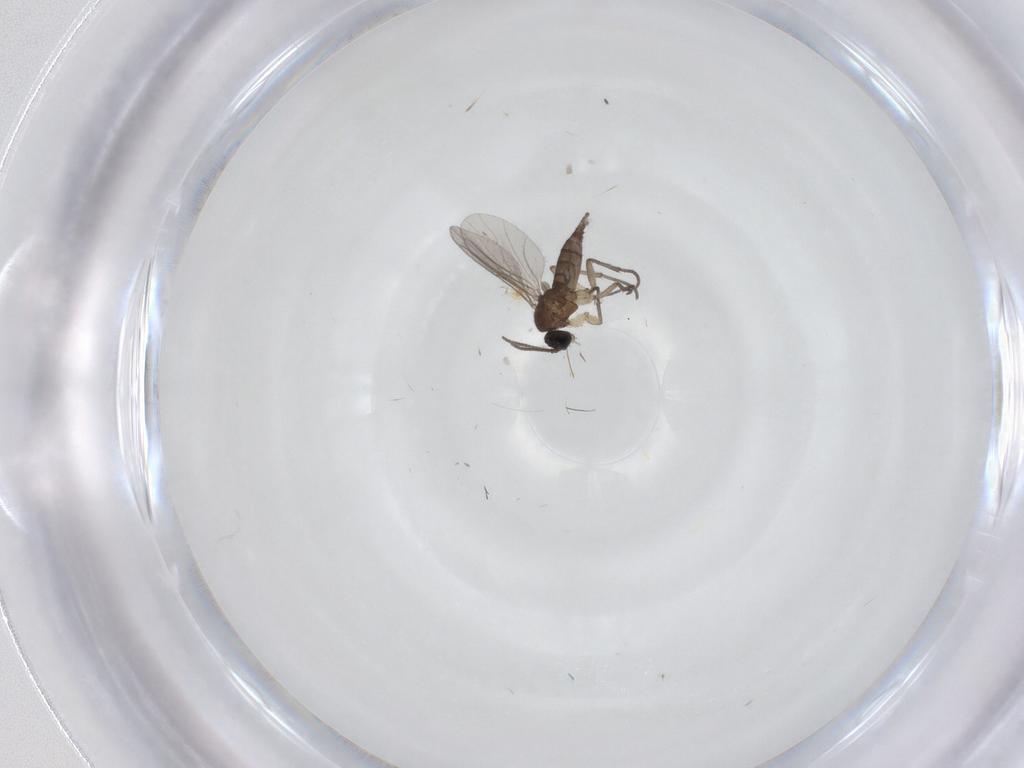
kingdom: Animalia
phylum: Arthropoda
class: Insecta
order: Diptera
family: Sciaridae
